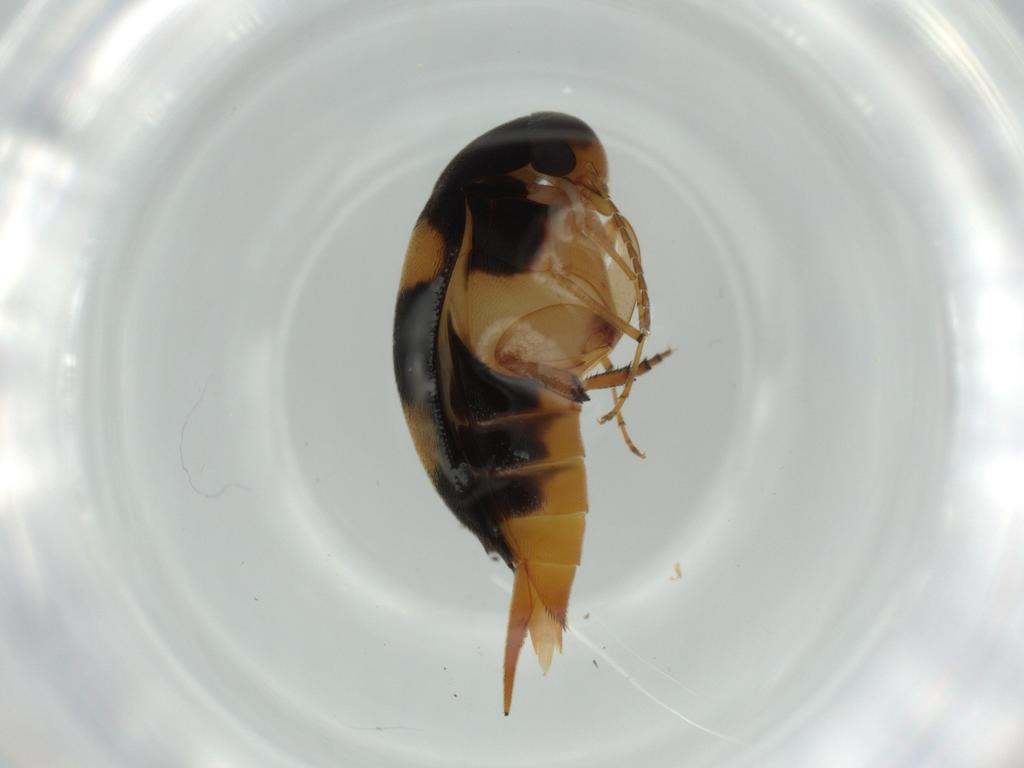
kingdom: Animalia
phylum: Arthropoda
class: Insecta
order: Coleoptera
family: Mordellidae
